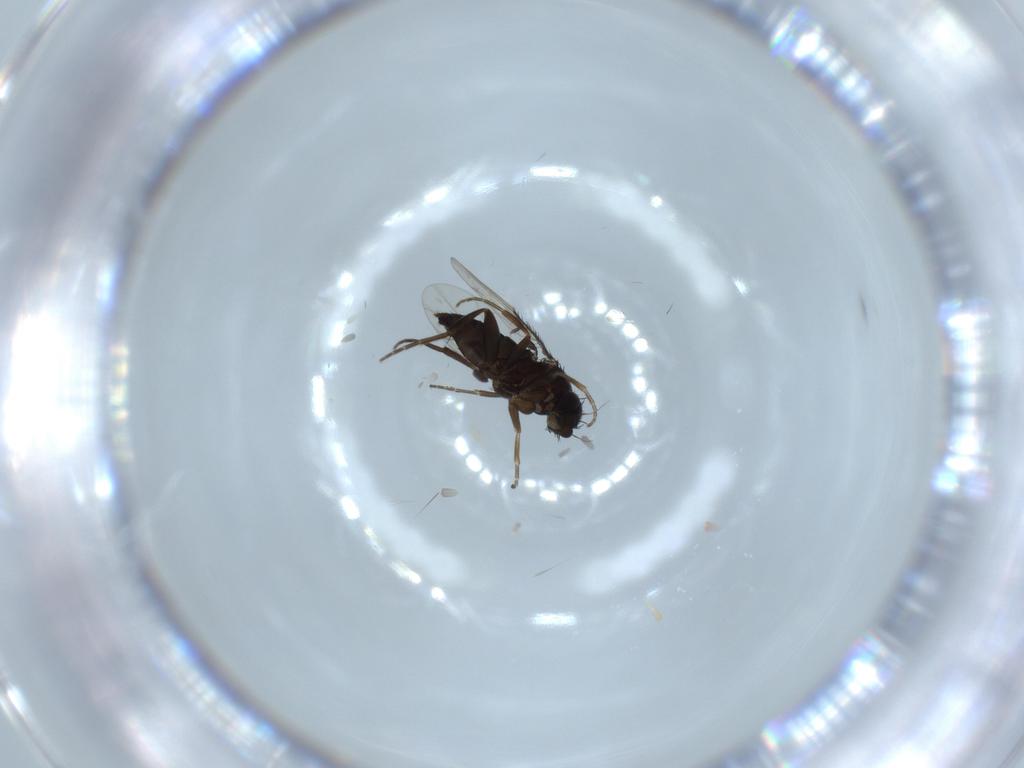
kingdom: Animalia
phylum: Arthropoda
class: Insecta
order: Diptera
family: Phoridae
